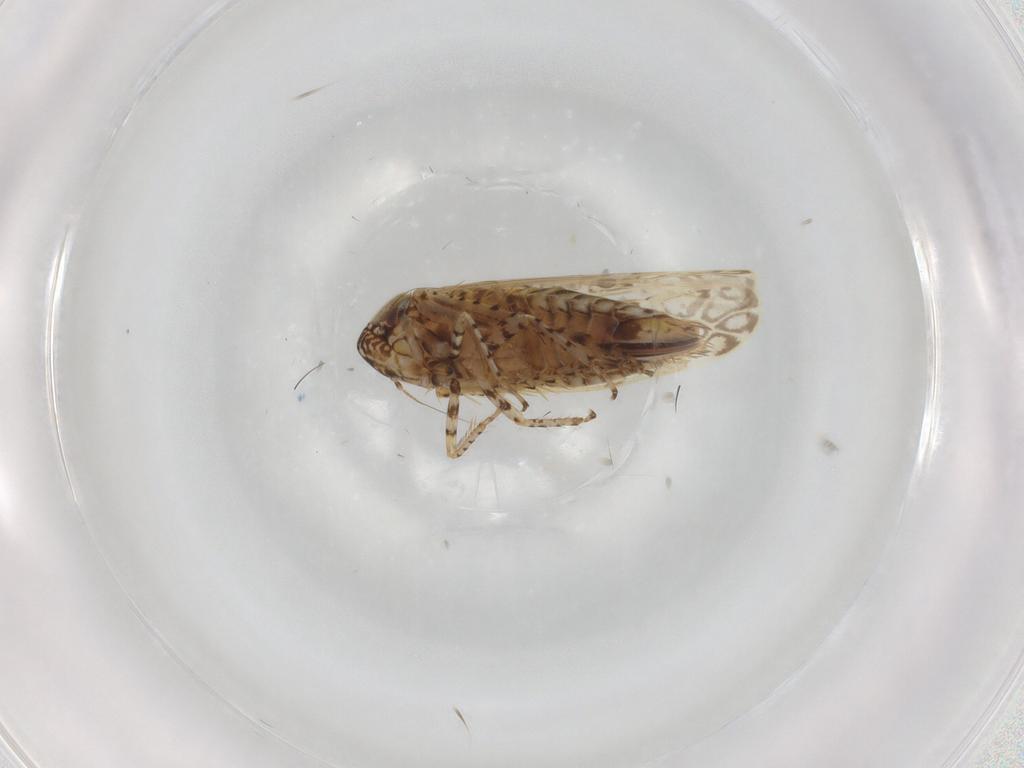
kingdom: Animalia
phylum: Arthropoda
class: Insecta
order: Hemiptera
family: Cicadellidae
